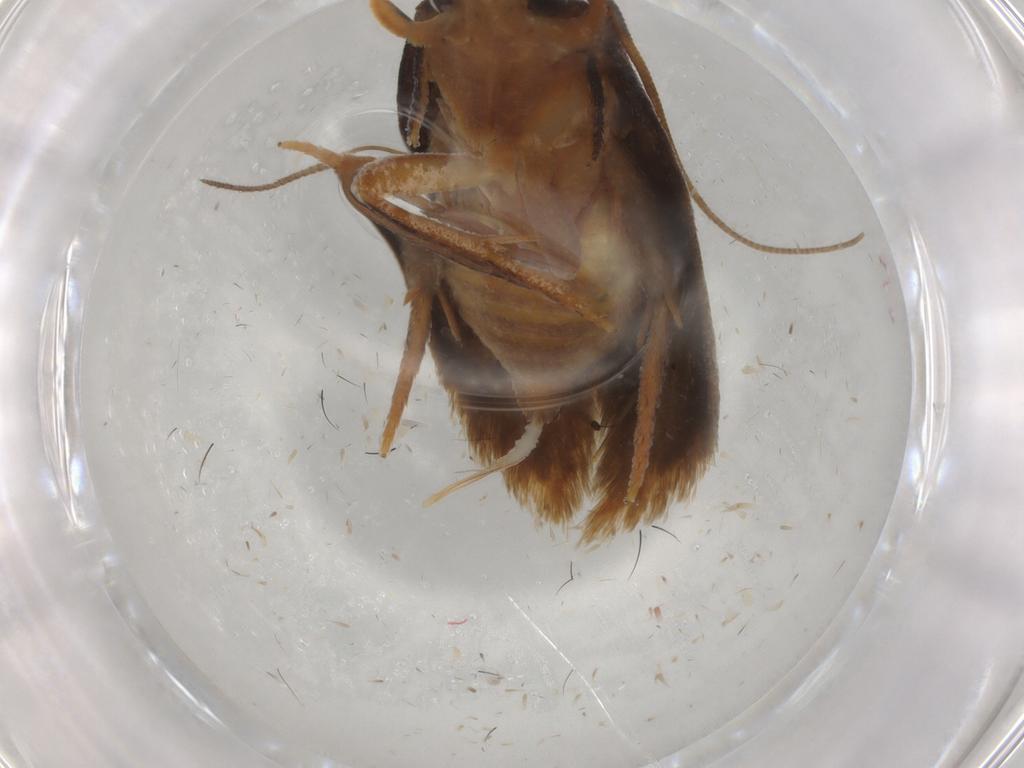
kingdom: Animalia
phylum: Arthropoda
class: Insecta
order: Lepidoptera
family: Tineidae
